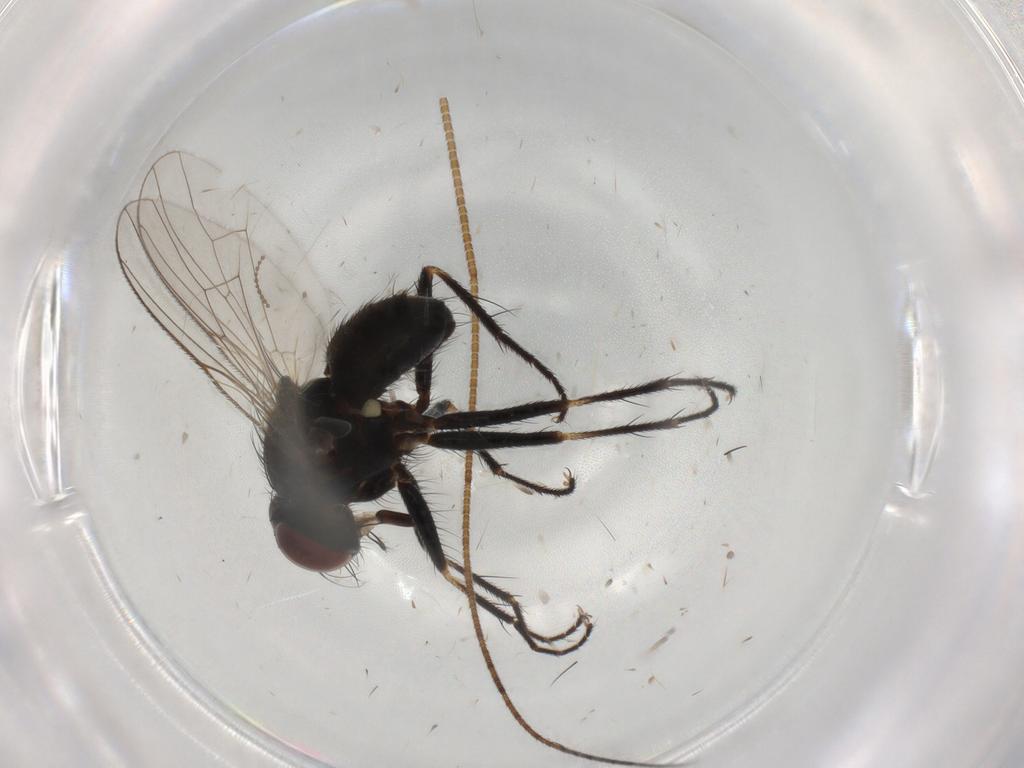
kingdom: Animalia
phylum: Arthropoda
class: Insecta
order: Diptera
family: Muscidae
